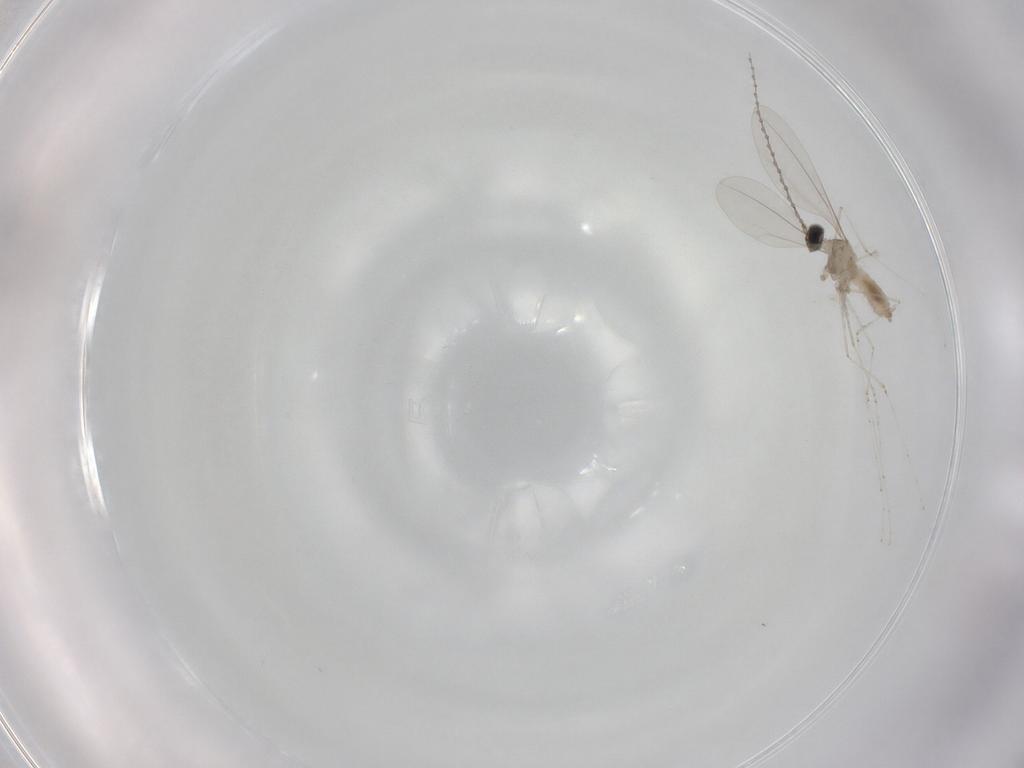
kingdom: Animalia
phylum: Arthropoda
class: Insecta
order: Diptera
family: Cecidomyiidae
